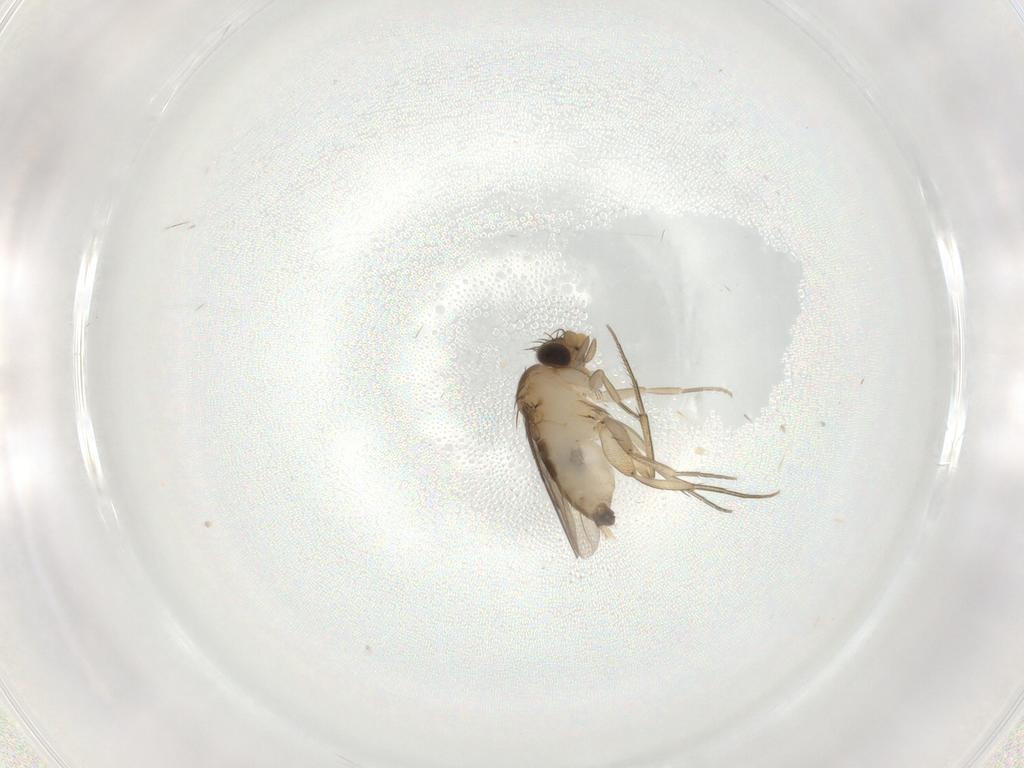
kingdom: Animalia
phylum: Arthropoda
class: Insecta
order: Diptera
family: Phoridae
